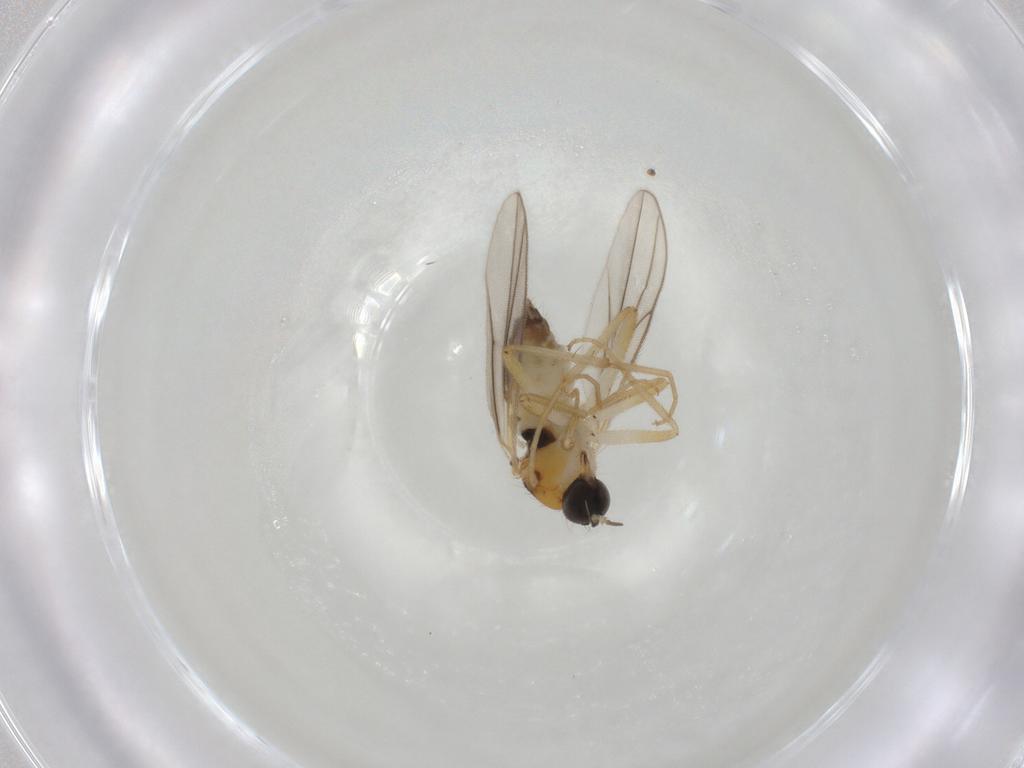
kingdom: Animalia
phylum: Arthropoda
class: Insecta
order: Diptera
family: Hybotidae
